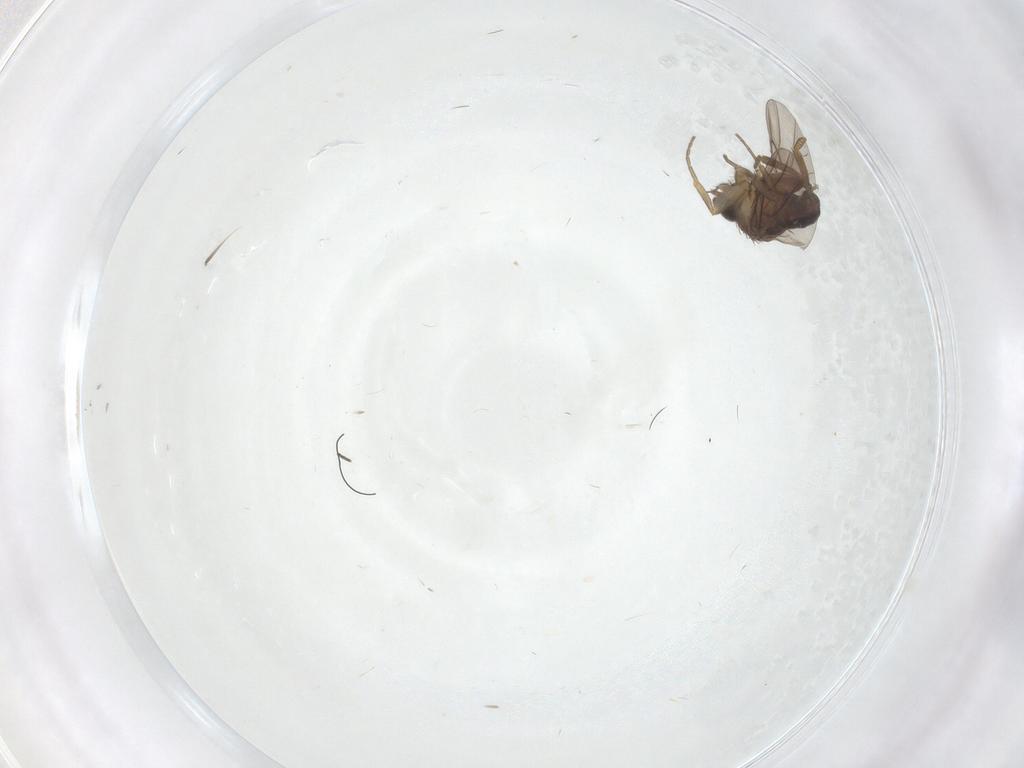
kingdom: Animalia
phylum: Arthropoda
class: Insecta
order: Diptera
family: Ceratopogonidae
